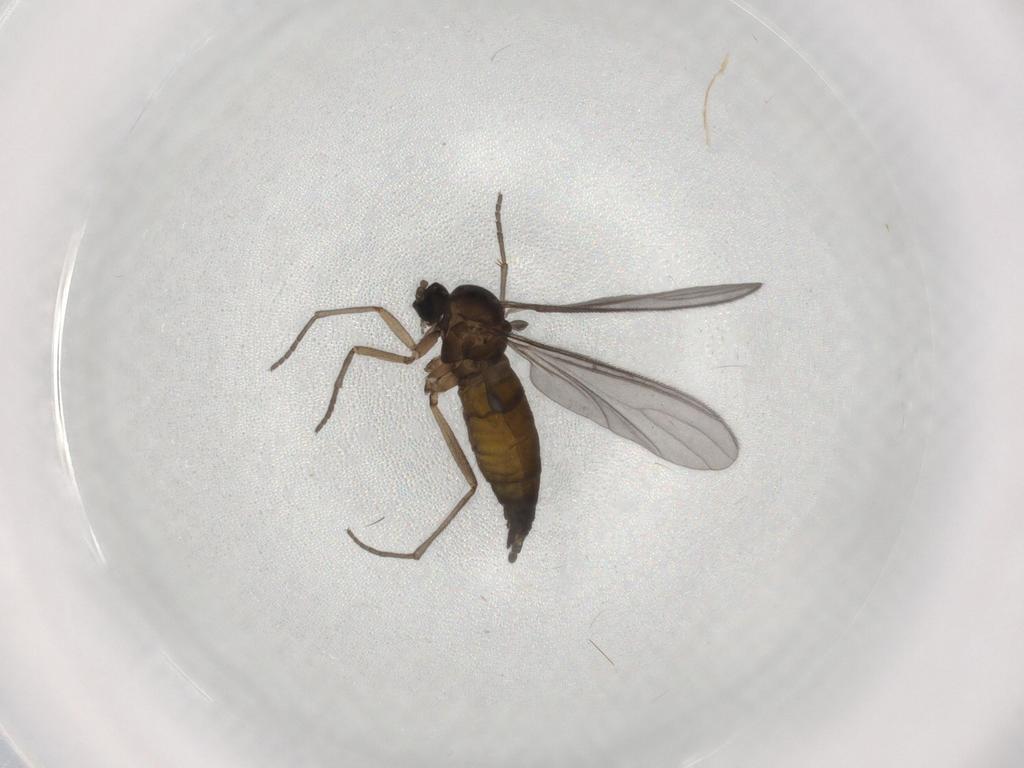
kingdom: Animalia
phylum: Arthropoda
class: Insecta
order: Diptera
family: Sciaridae
